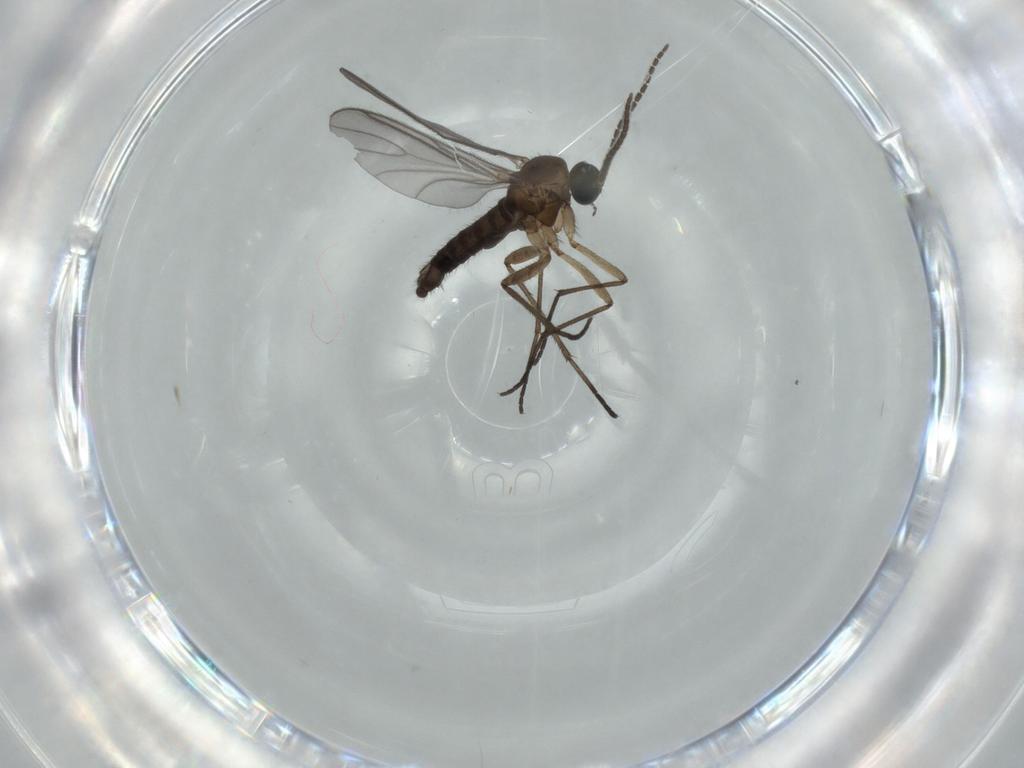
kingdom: Animalia
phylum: Arthropoda
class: Insecta
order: Diptera
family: Sciaridae
